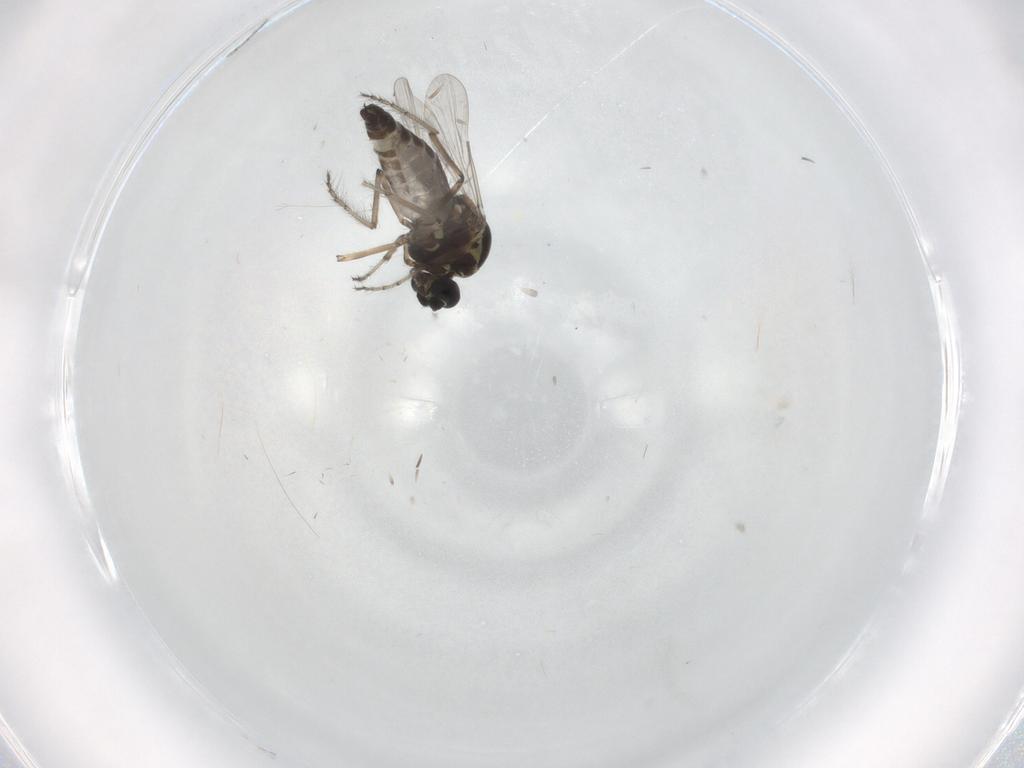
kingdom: Animalia
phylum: Arthropoda
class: Insecta
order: Diptera
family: Ceratopogonidae
